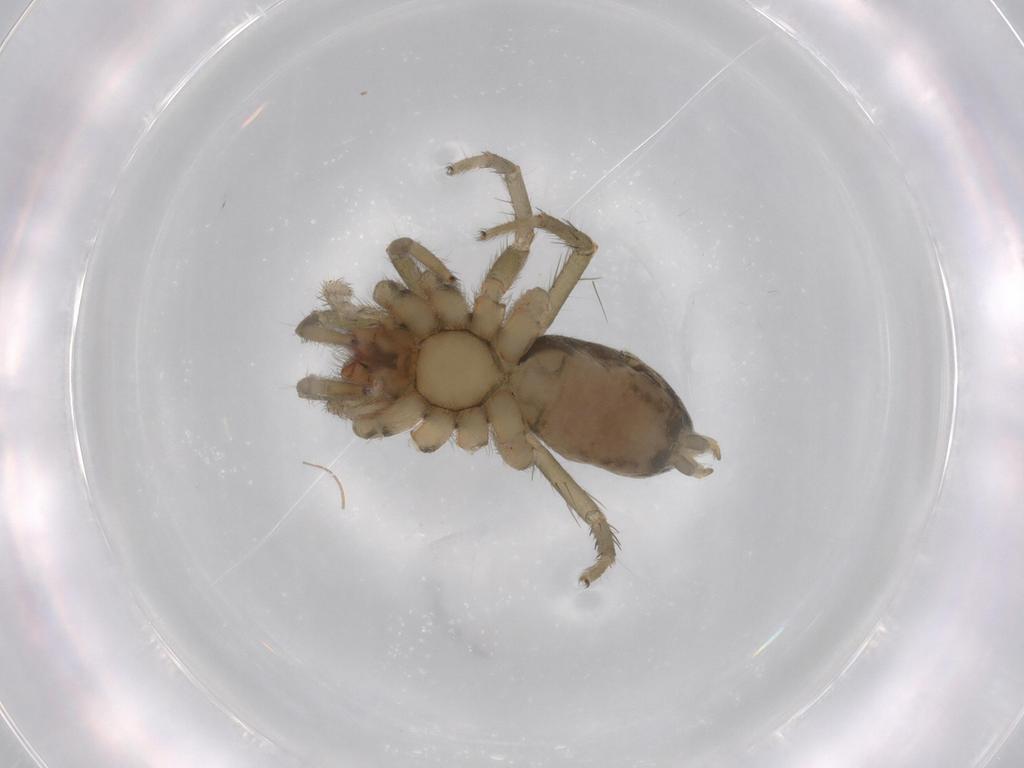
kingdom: Animalia
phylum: Arthropoda
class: Arachnida
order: Araneae
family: Miturgidae
